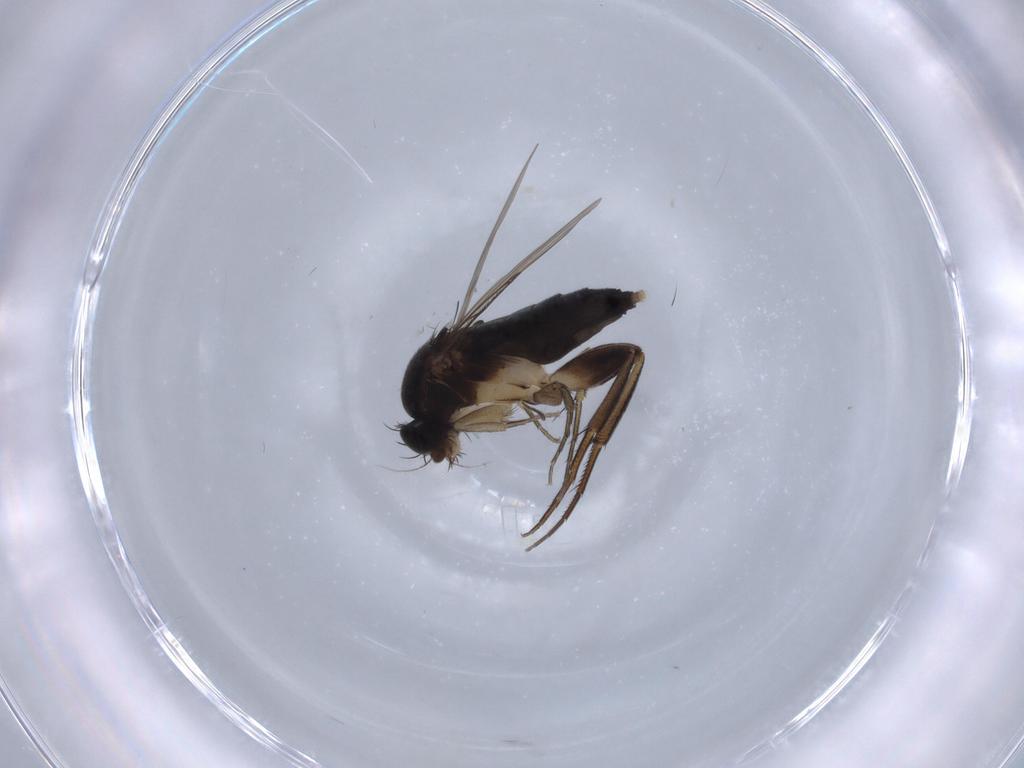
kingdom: Animalia
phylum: Arthropoda
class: Insecta
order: Diptera
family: Phoridae
